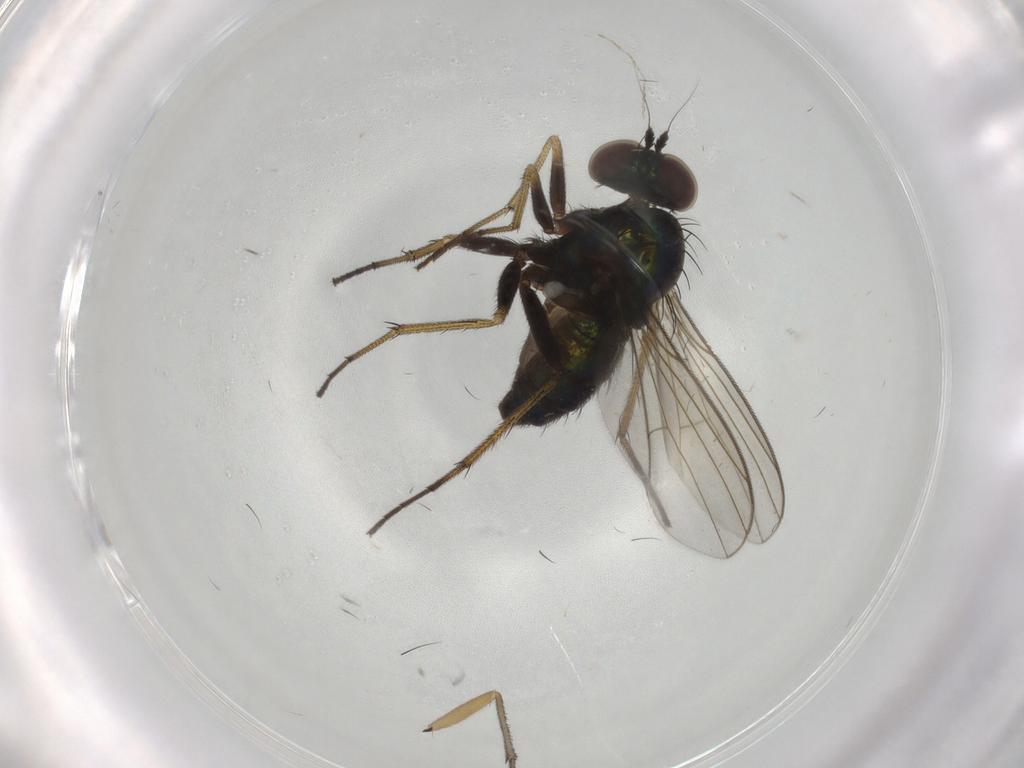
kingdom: Animalia
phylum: Arthropoda
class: Insecta
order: Diptera
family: Dolichopodidae
